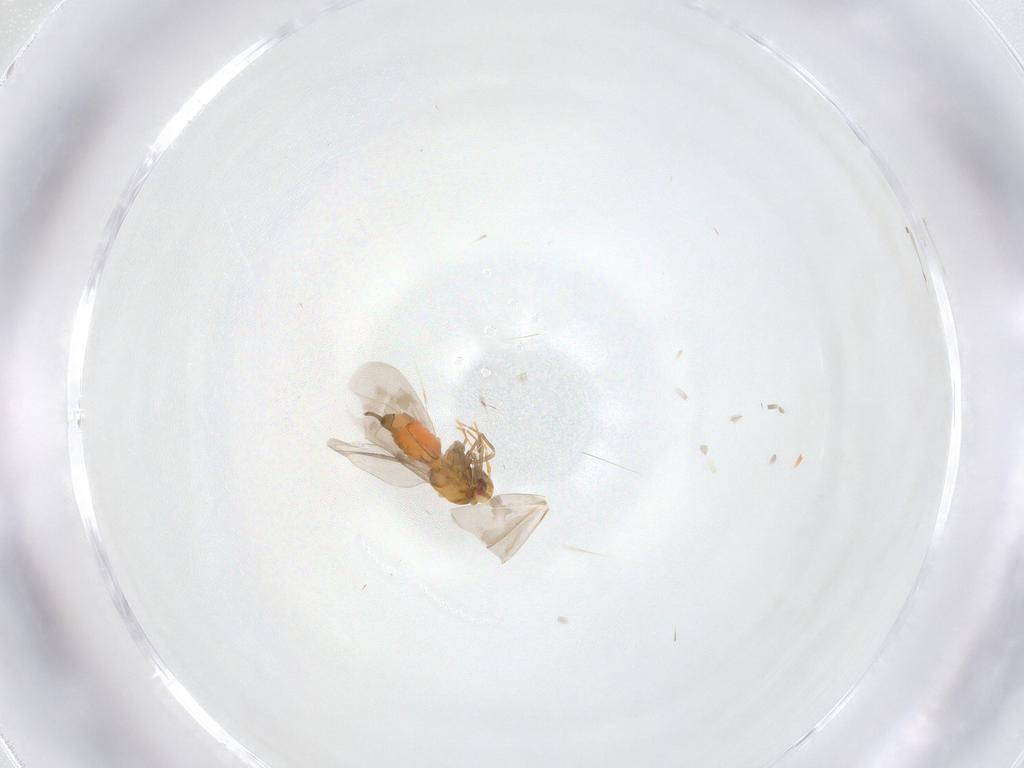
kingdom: Animalia
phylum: Arthropoda
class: Insecta
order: Hemiptera
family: Aleyrodidae
